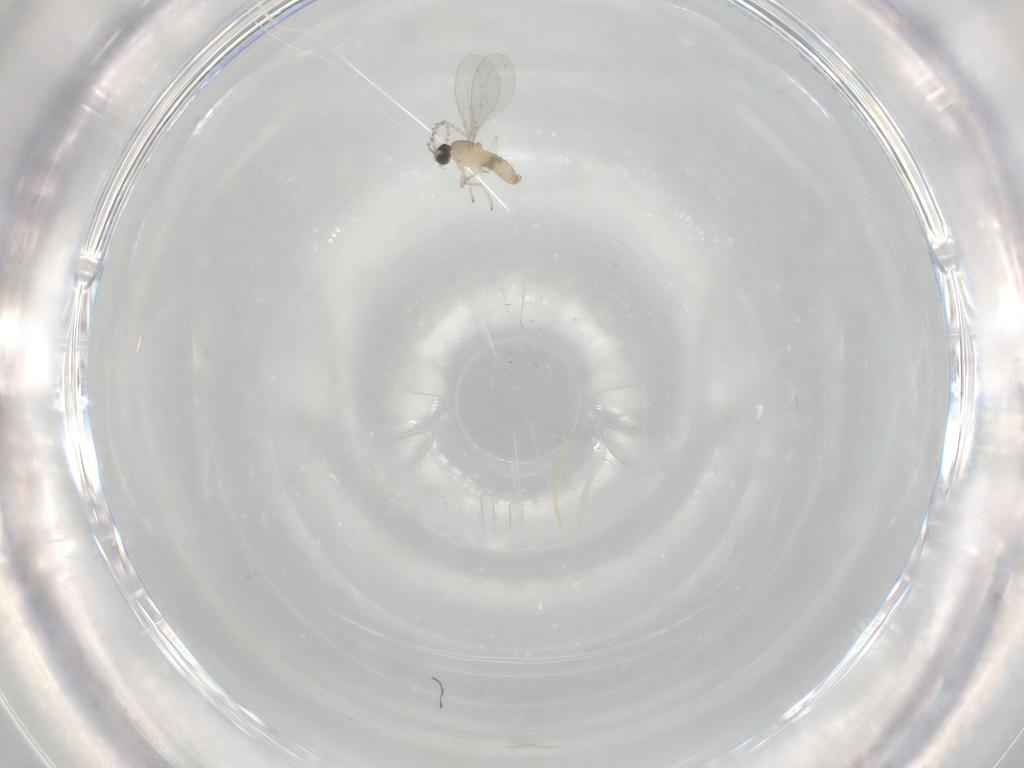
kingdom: Animalia
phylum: Arthropoda
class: Insecta
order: Diptera
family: Cecidomyiidae
